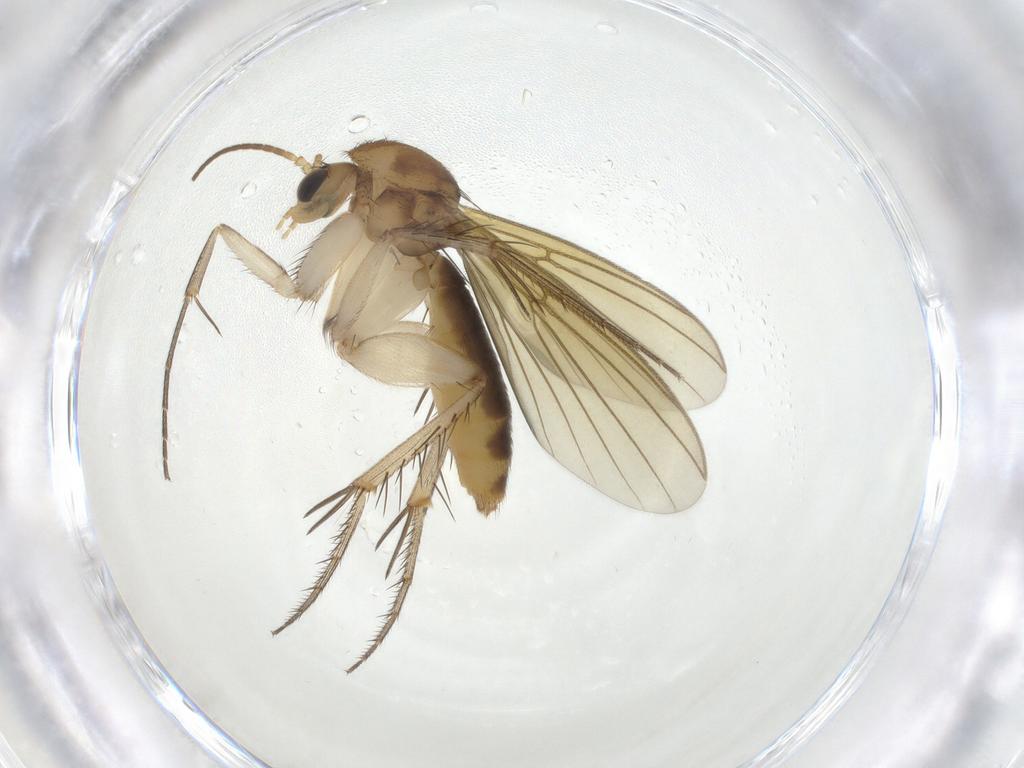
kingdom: Animalia
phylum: Arthropoda
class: Insecta
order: Diptera
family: Mycetophilidae
